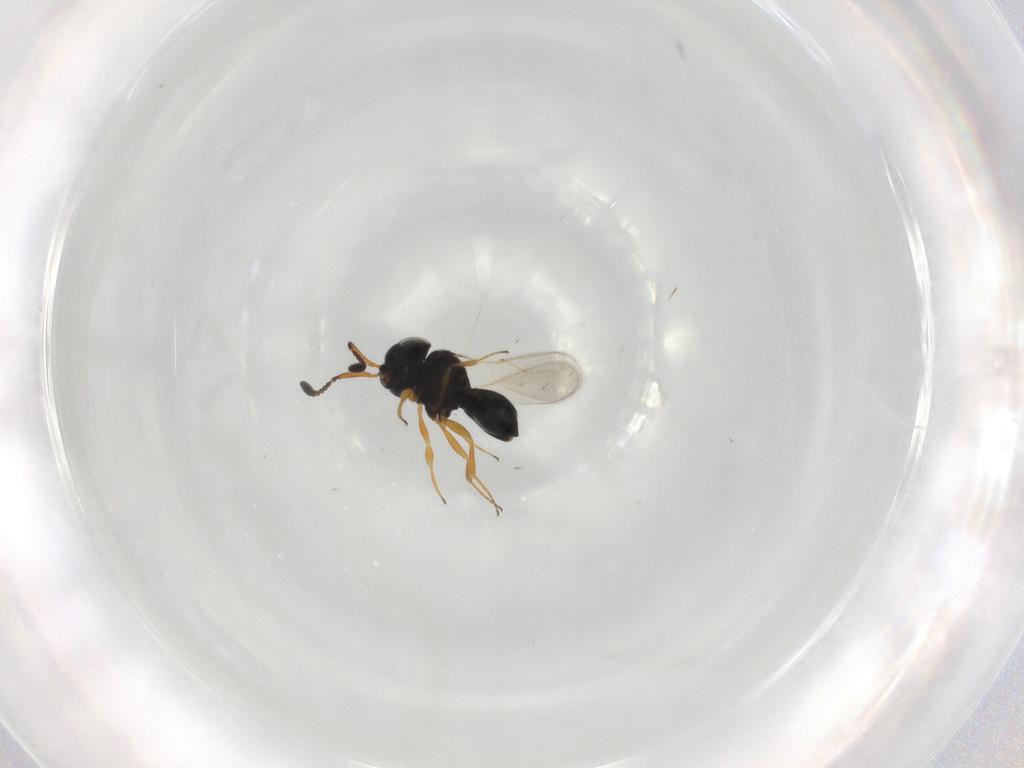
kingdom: Animalia
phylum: Arthropoda
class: Insecta
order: Hymenoptera
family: Scelionidae
